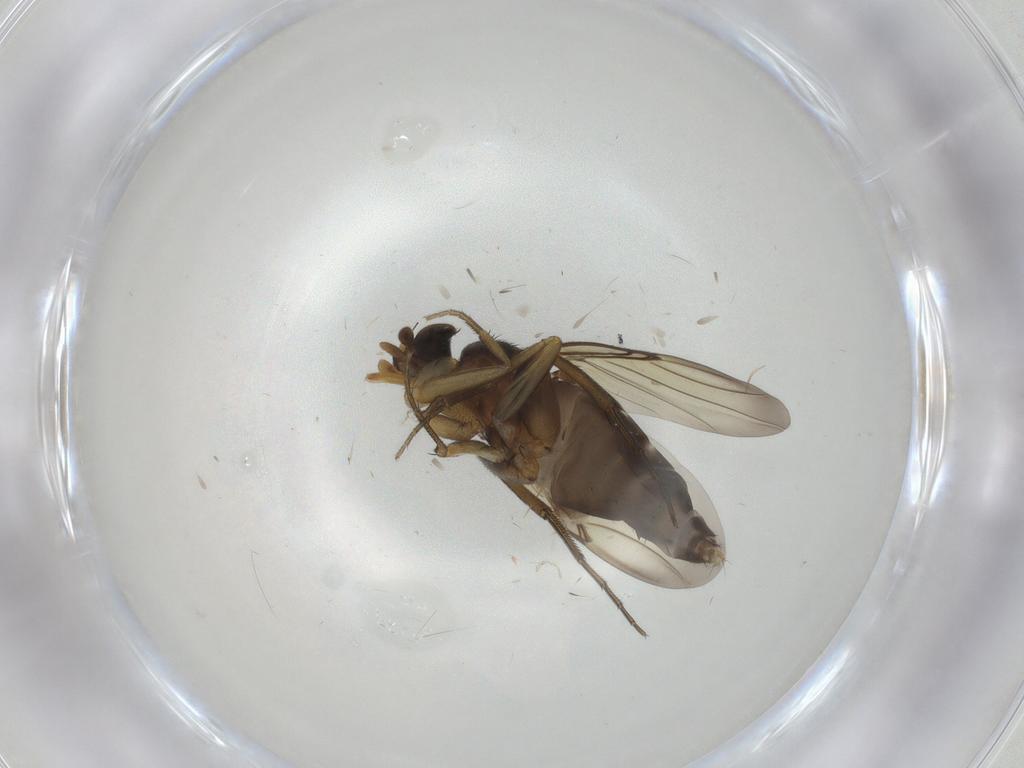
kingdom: Animalia
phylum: Arthropoda
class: Insecta
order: Diptera
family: Phoridae
